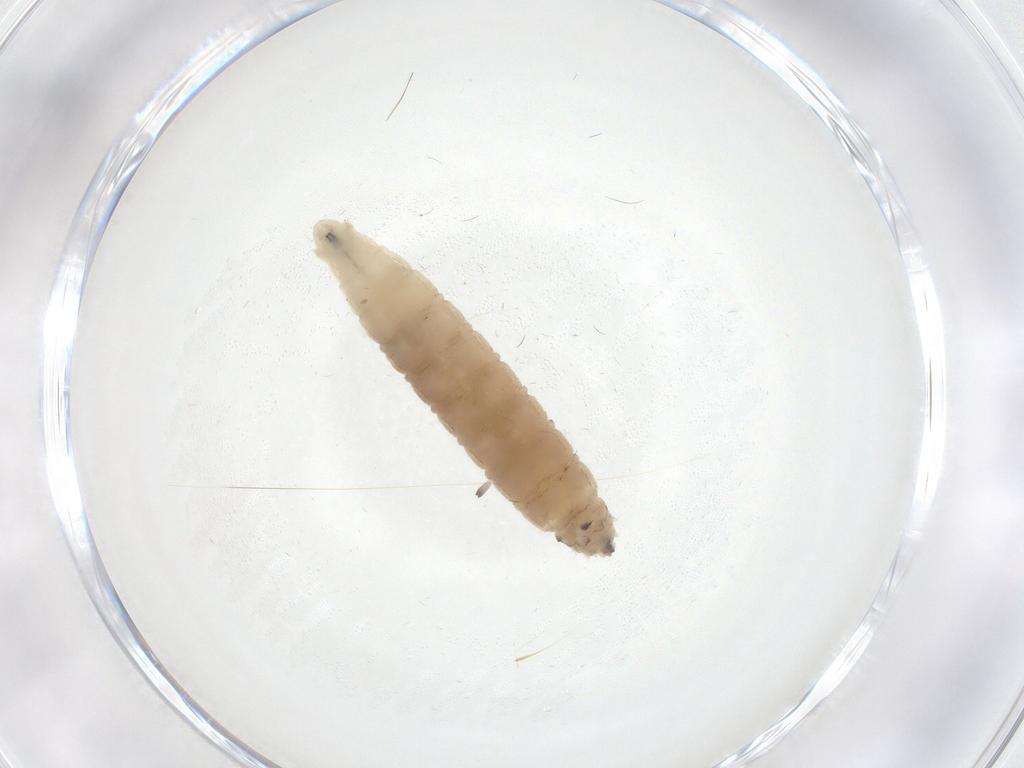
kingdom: Animalia
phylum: Arthropoda
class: Insecta
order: Diptera
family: Drosophilidae
